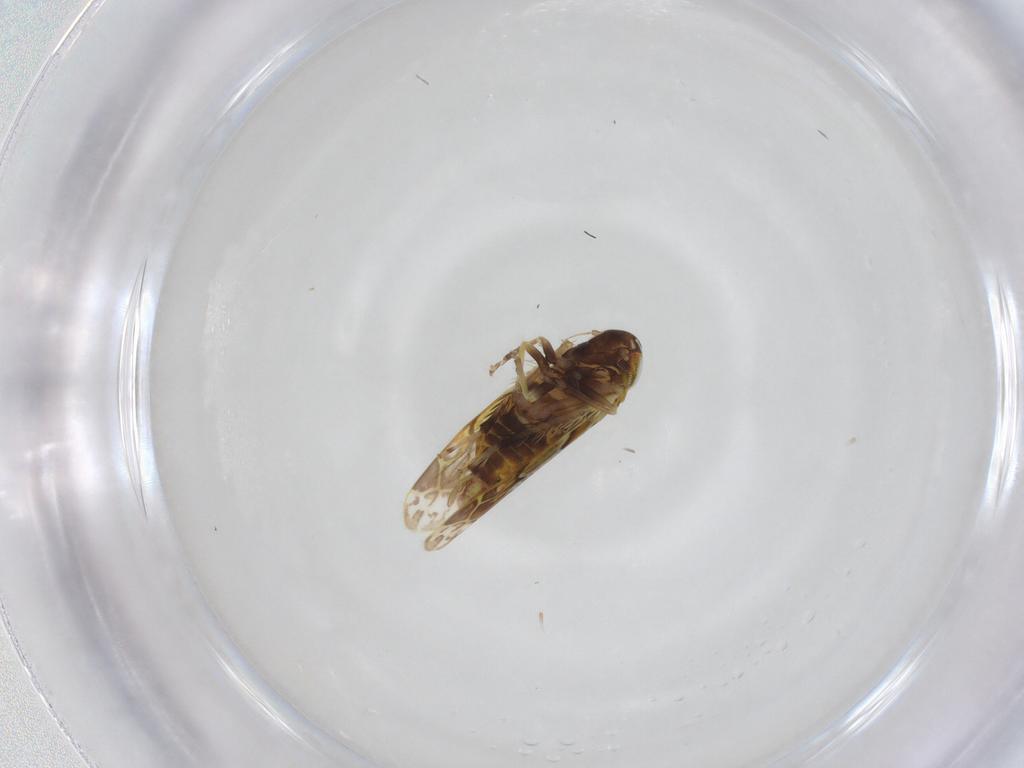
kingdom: Animalia
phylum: Arthropoda
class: Insecta
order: Hemiptera
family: Cicadellidae
